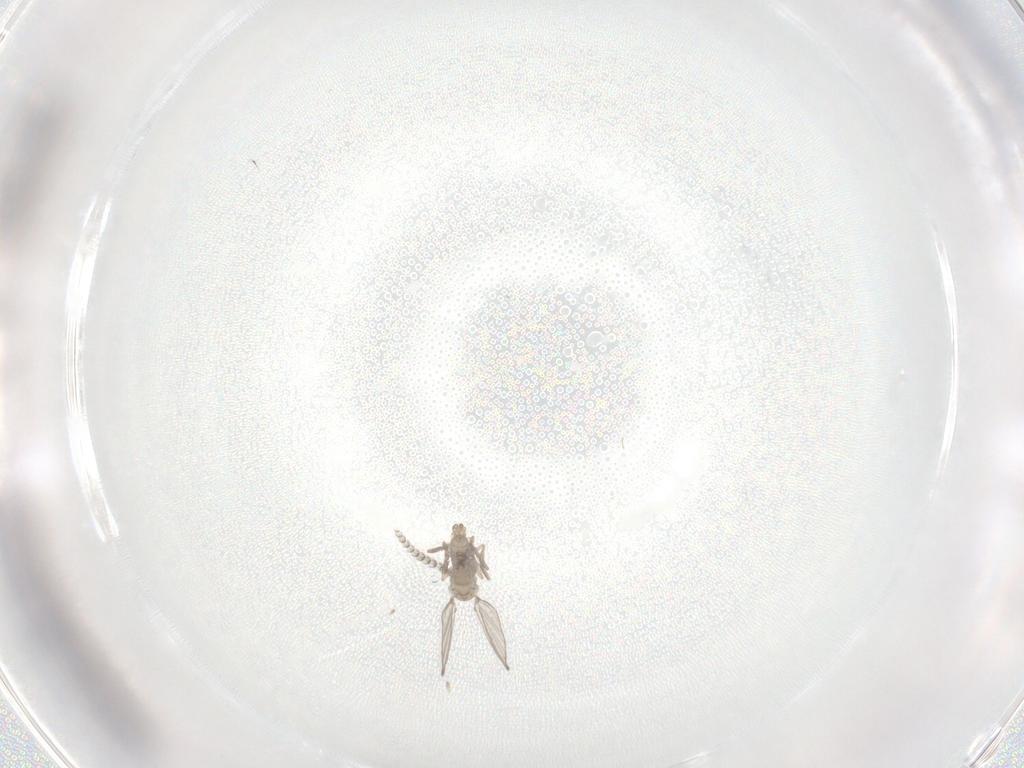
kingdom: Animalia
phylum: Arthropoda
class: Insecta
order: Diptera
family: Psychodidae
